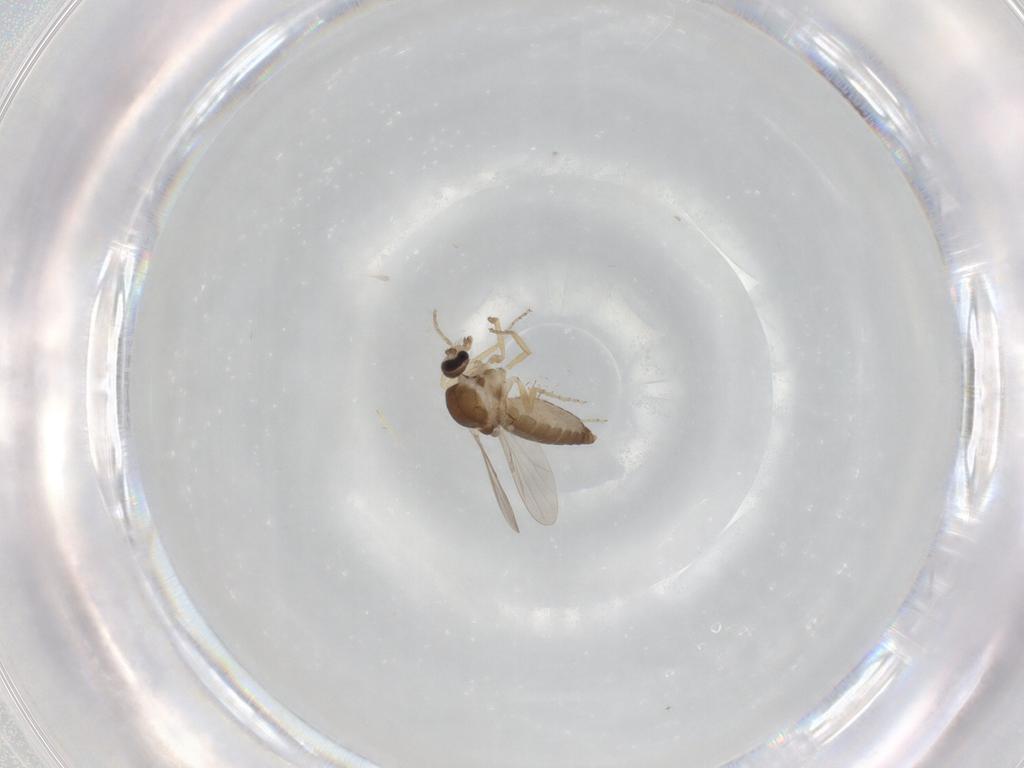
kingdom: Animalia
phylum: Arthropoda
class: Insecta
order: Diptera
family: Ceratopogonidae
